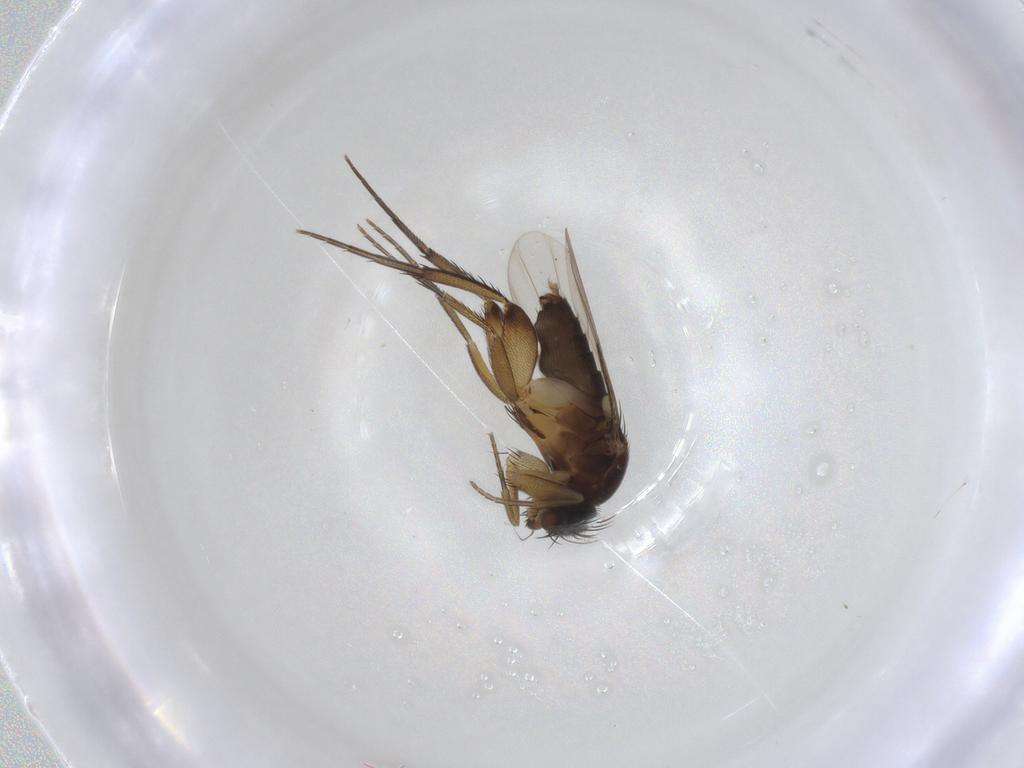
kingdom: Animalia
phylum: Arthropoda
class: Insecta
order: Diptera
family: Phoridae
